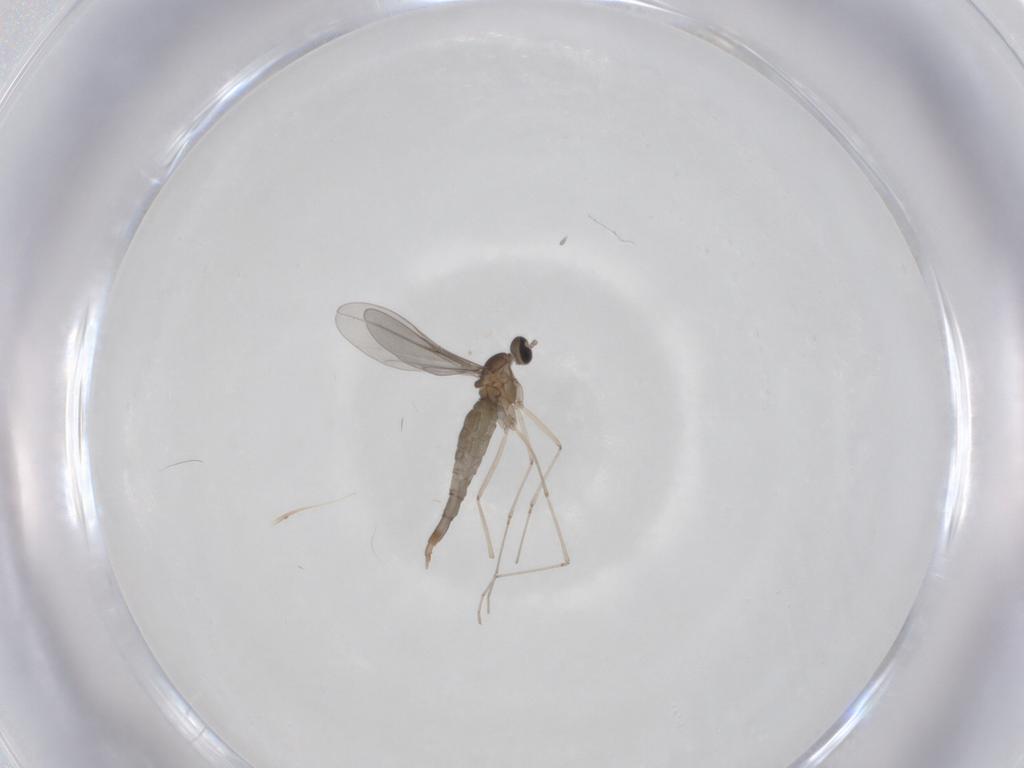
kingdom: Animalia
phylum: Arthropoda
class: Insecta
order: Diptera
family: Cecidomyiidae
